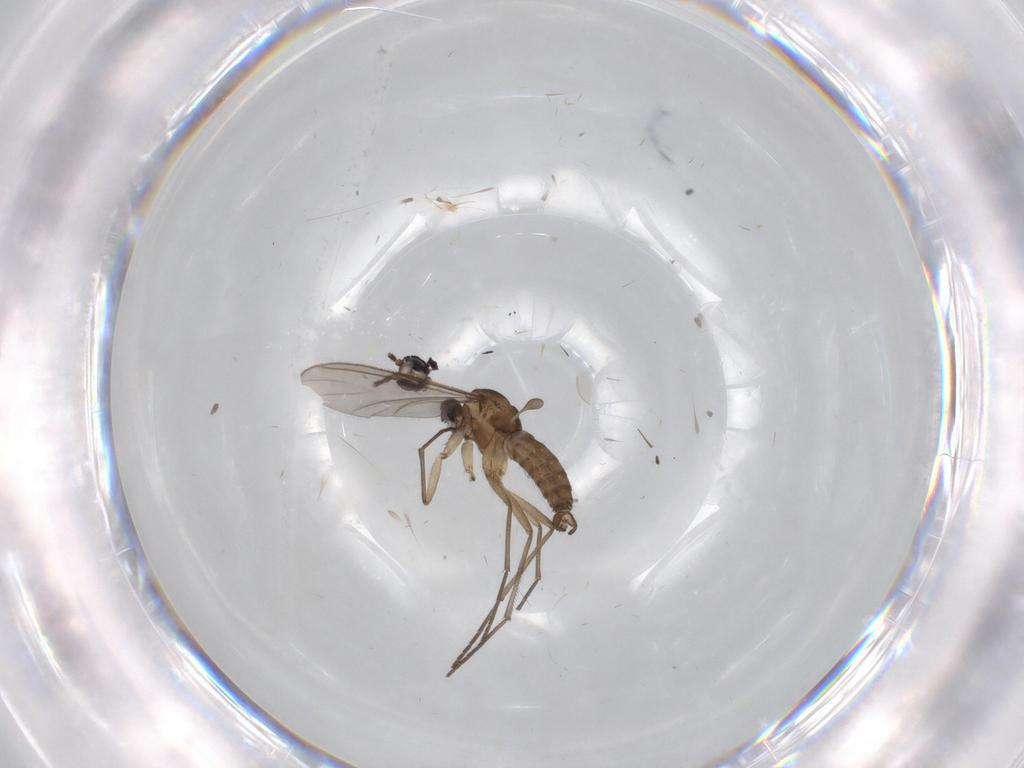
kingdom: Animalia
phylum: Arthropoda
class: Insecta
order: Diptera
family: Sciaridae
